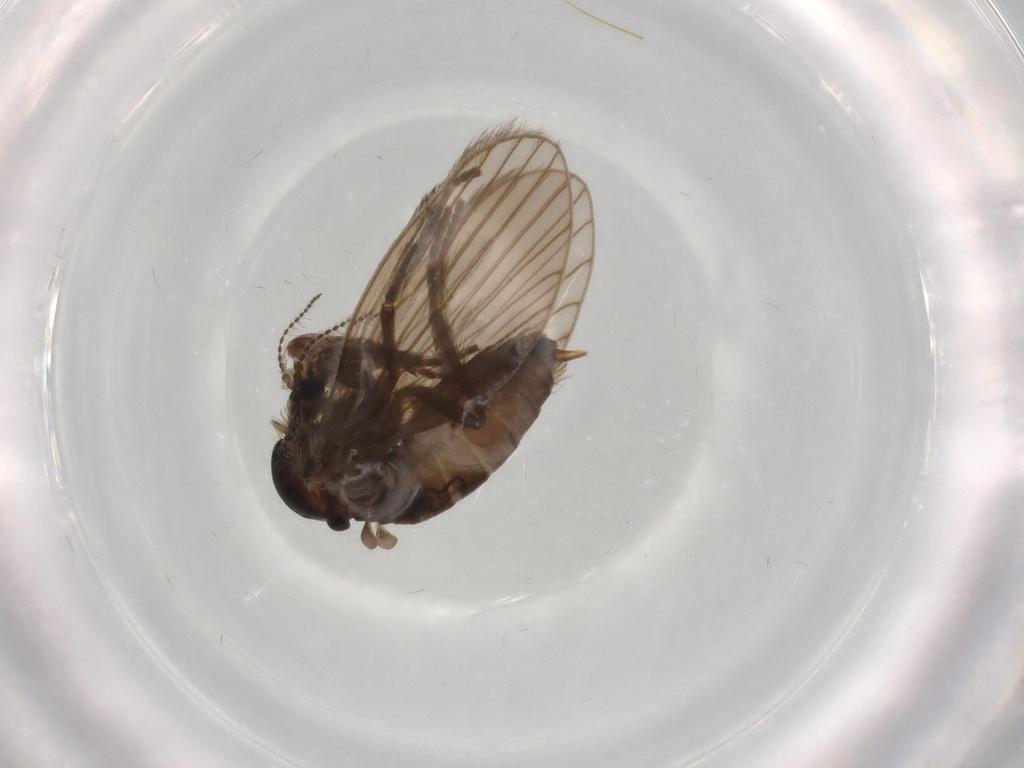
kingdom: Animalia
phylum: Arthropoda
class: Insecta
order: Diptera
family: Psychodidae
